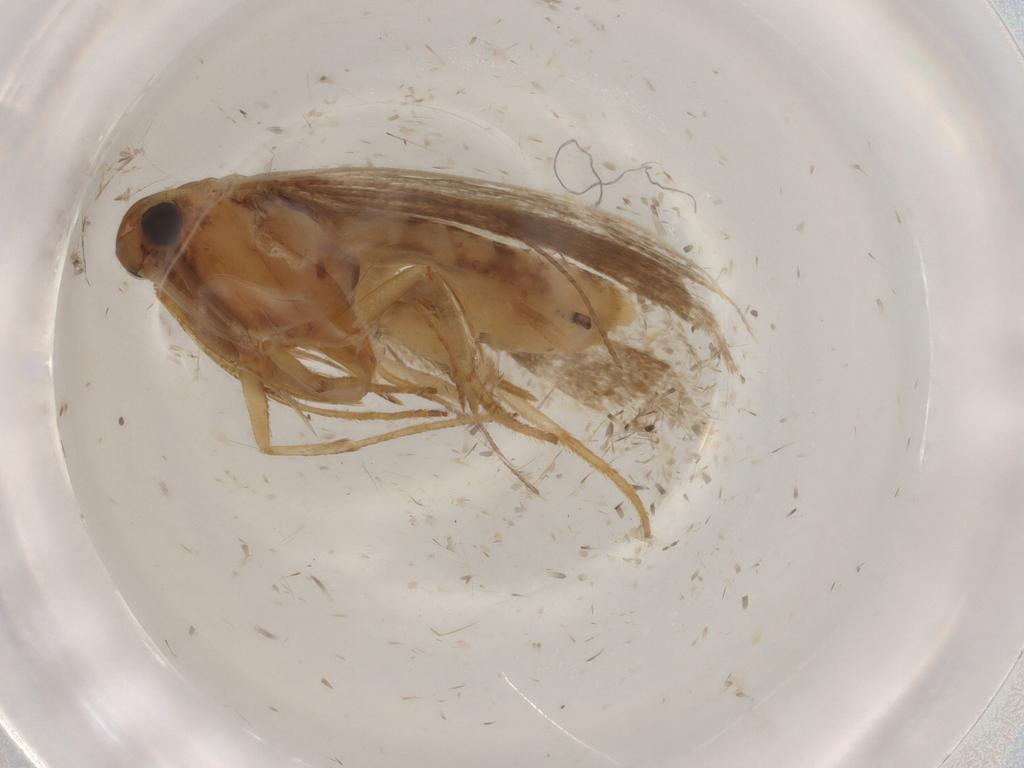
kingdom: Animalia
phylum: Arthropoda
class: Insecta
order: Lepidoptera
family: Gelechiidae
